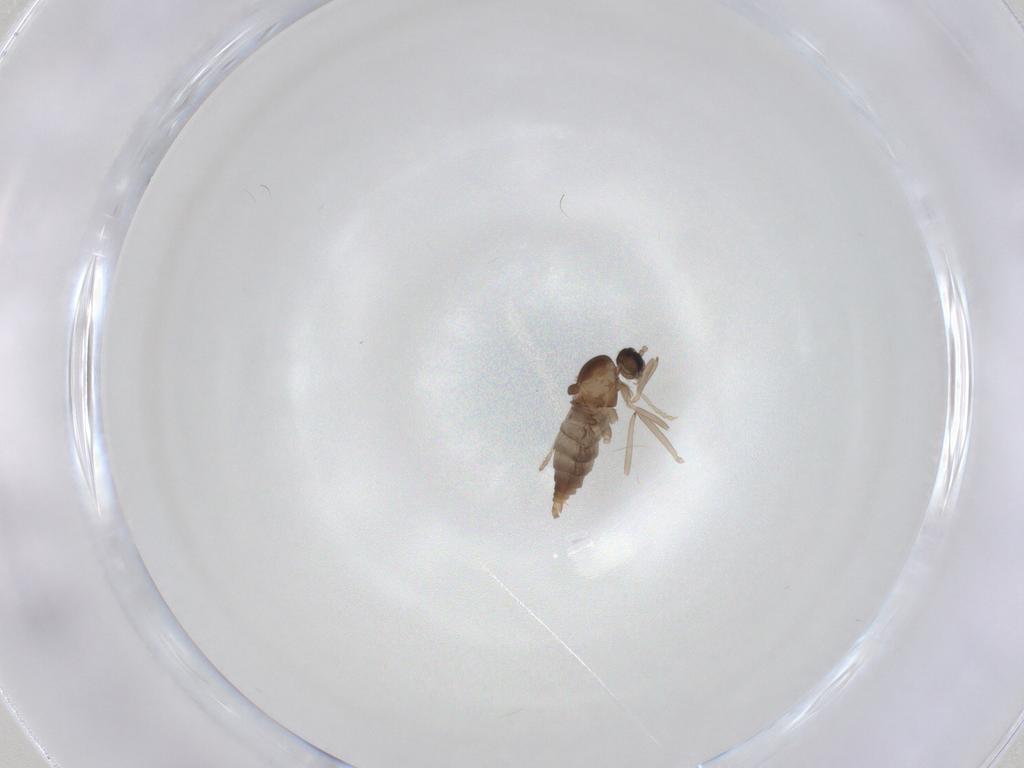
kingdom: Animalia
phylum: Arthropoda
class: Insecta
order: Diptera
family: Cecidomyiidae
